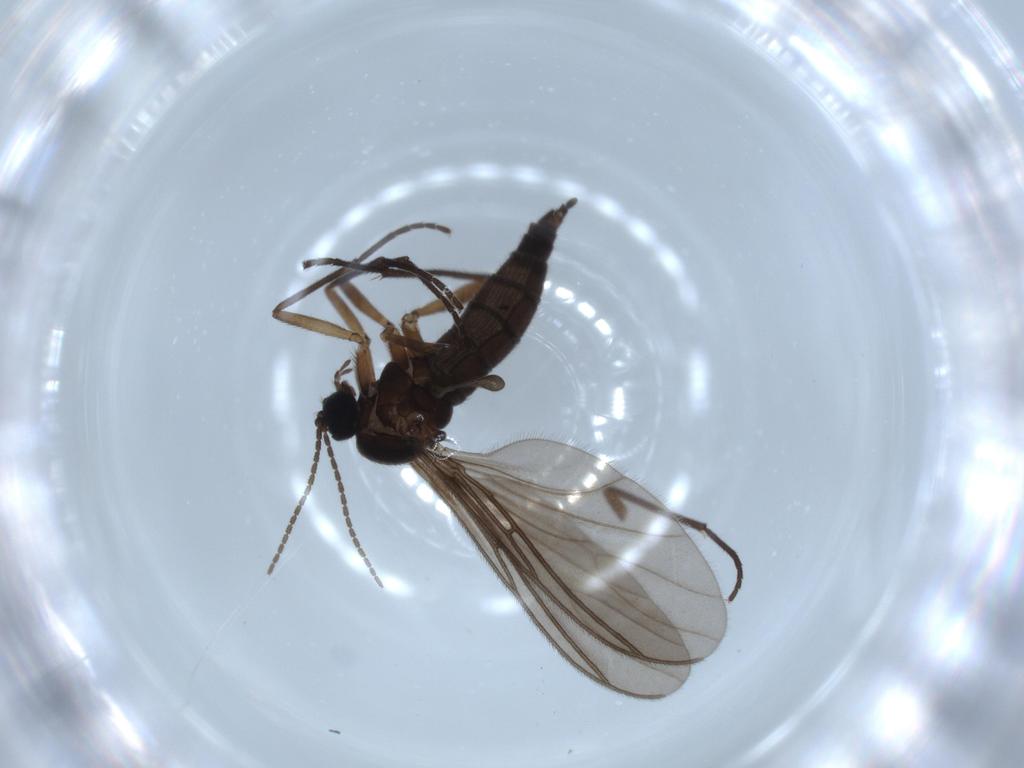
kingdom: Animalia
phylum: Arthropoda
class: Insecta
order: Diptera
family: Sciaridae
